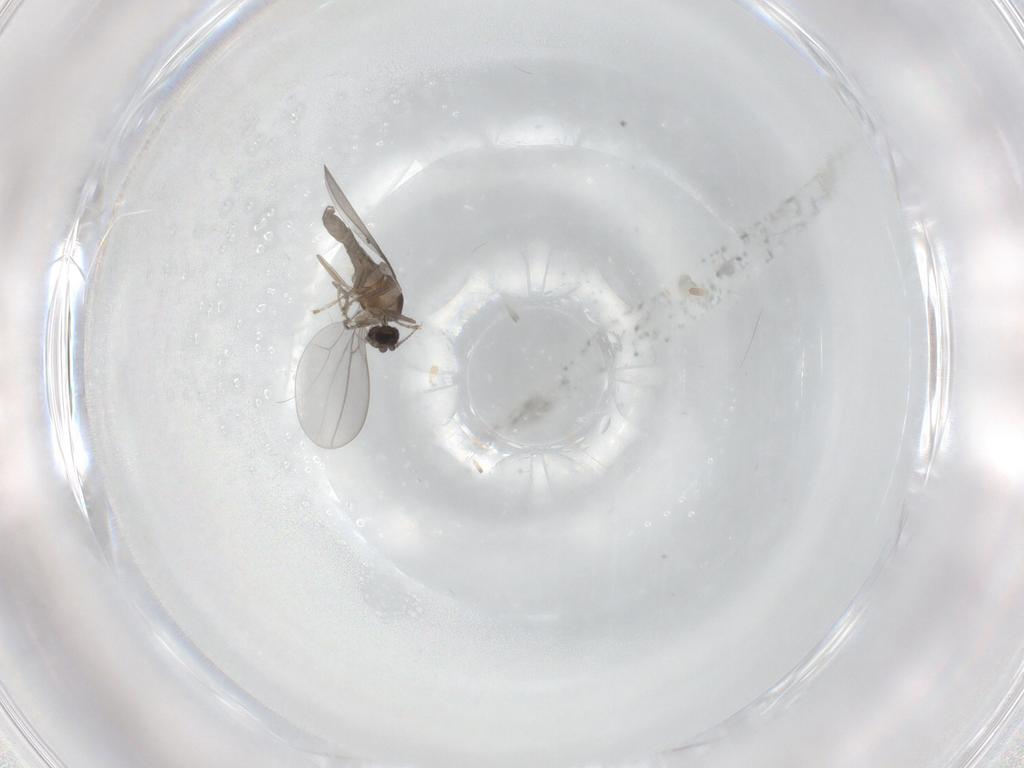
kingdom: Animalia
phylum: Arthropoda
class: Insecta
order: Diptera
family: Cecidomyiidae
